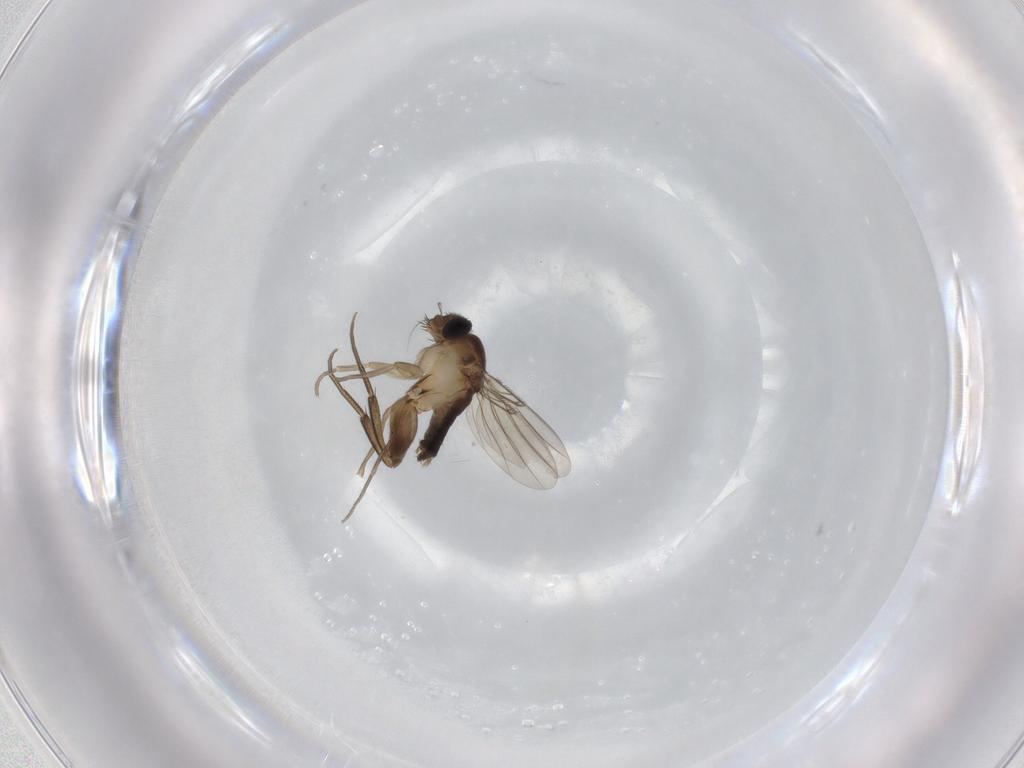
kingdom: Animalia
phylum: Arthropoda
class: Insecta
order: Diptera
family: Phoridae
